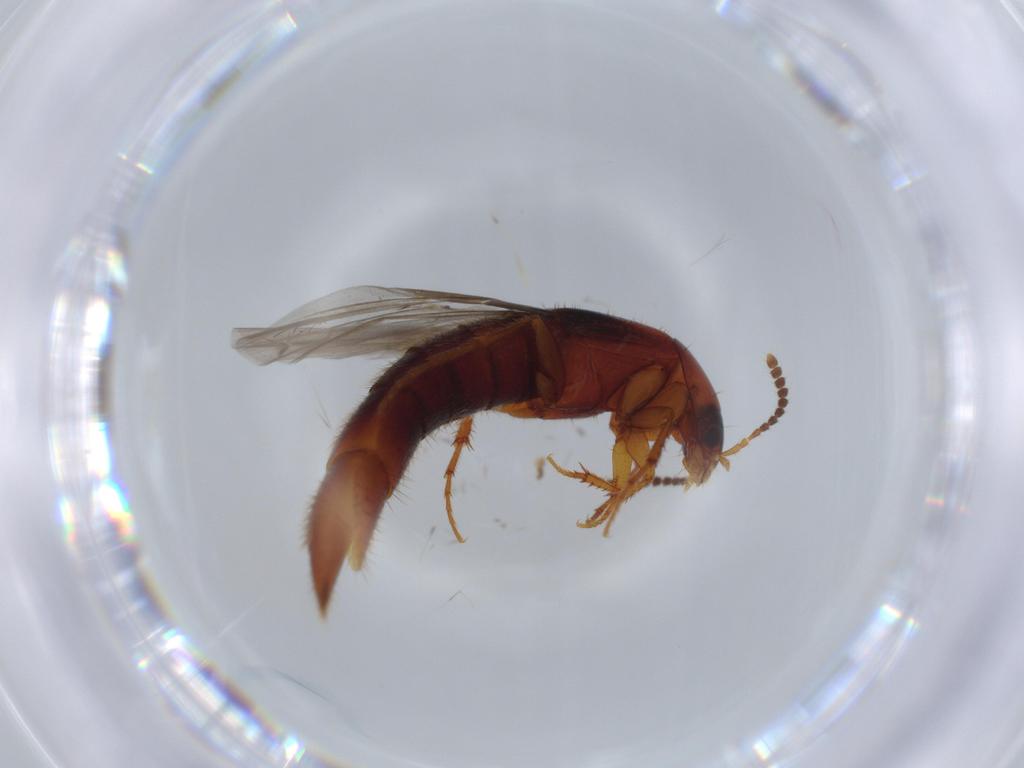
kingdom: Animalia
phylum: Arthropoda
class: Insecta
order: Coleoptera
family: Staphylinidae
